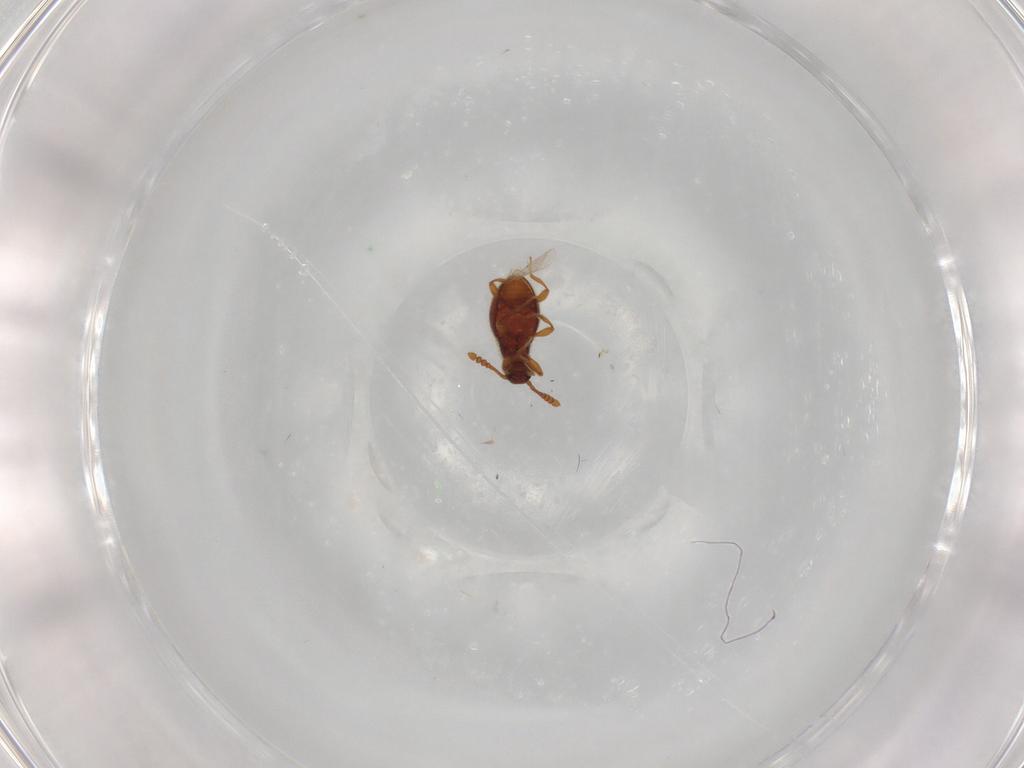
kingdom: Animalia
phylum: Arthropoda
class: Insecta
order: Coleoptera
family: Staphylinidae
